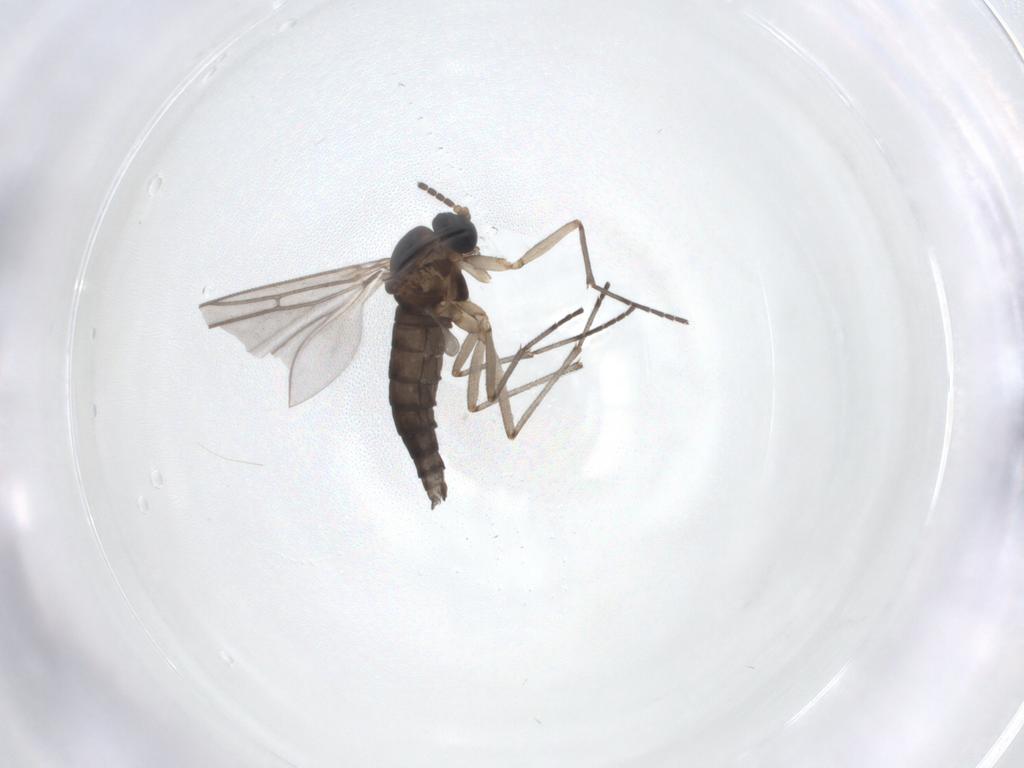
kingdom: Animalia
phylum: Arthropoda
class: Insecta
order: Diptera
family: Sciaridae
